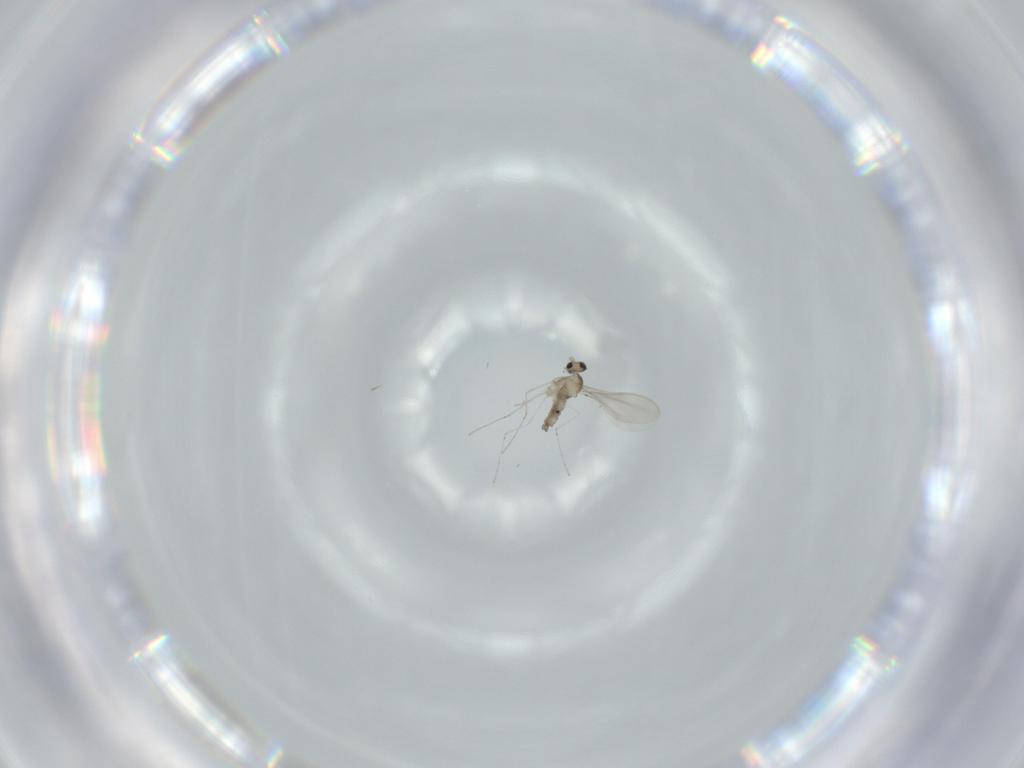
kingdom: Animalia
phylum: Arthropoda
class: Insecta
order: Diptera
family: Cecidomyiidae
